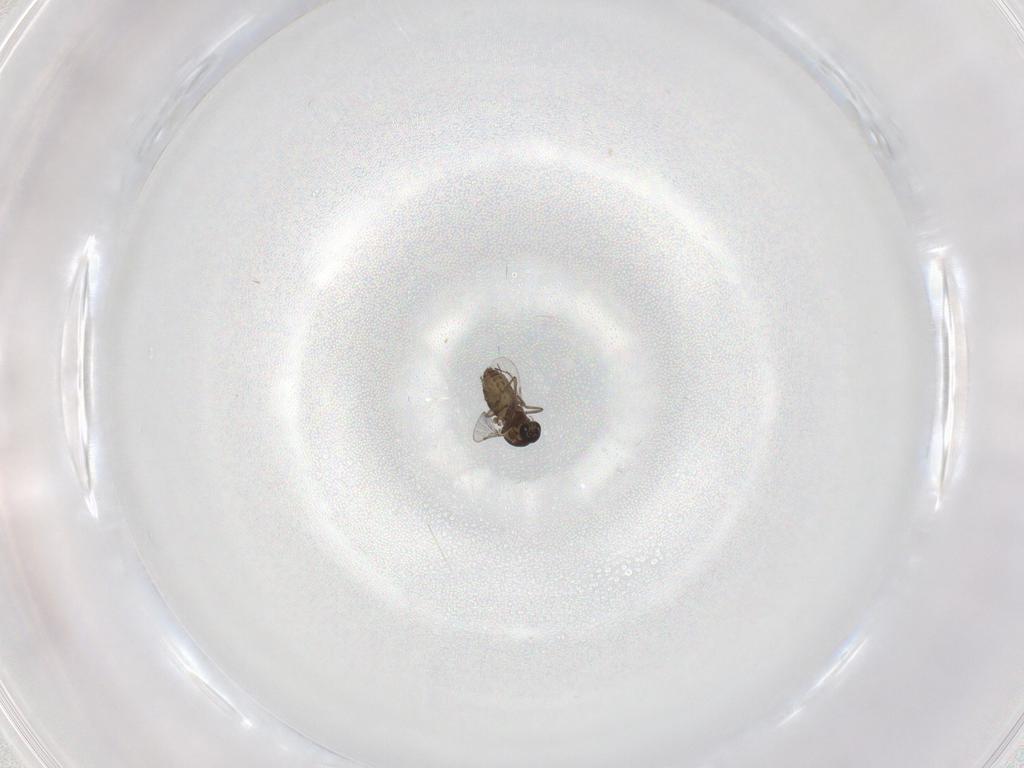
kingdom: Animalia
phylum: Arthropoda
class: Insecta
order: Diptera
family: Ceratopogonidae
